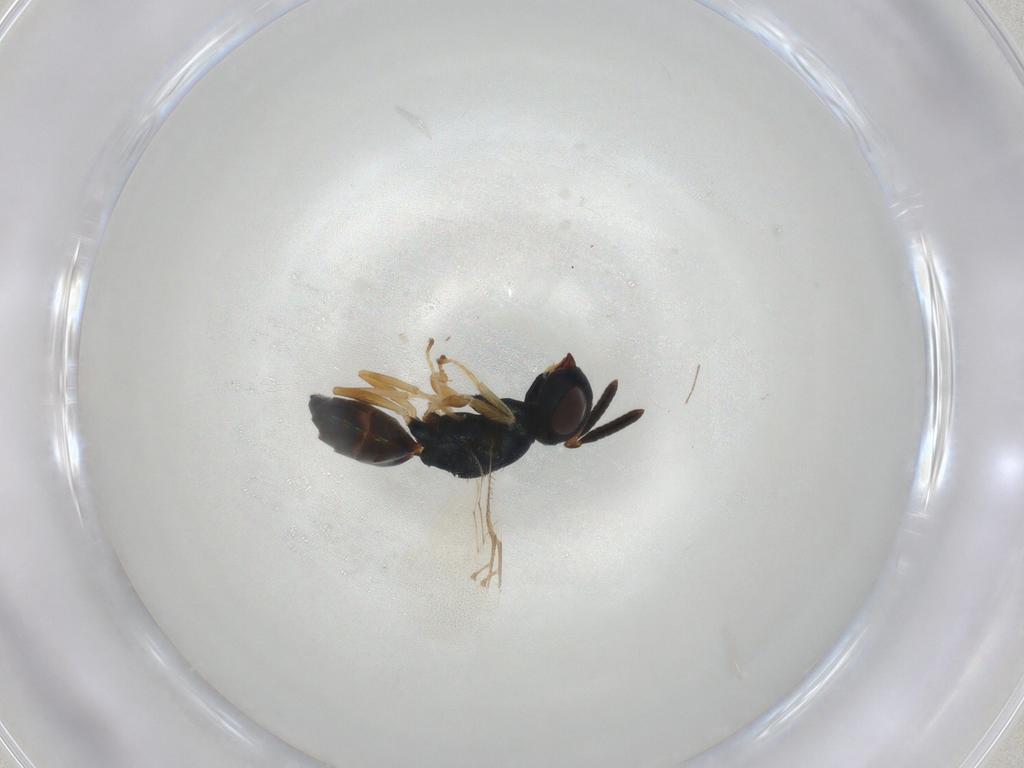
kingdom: Animalia
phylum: Arthropoda
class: Insecta
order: Hymenoptera
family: Pteromalidae
